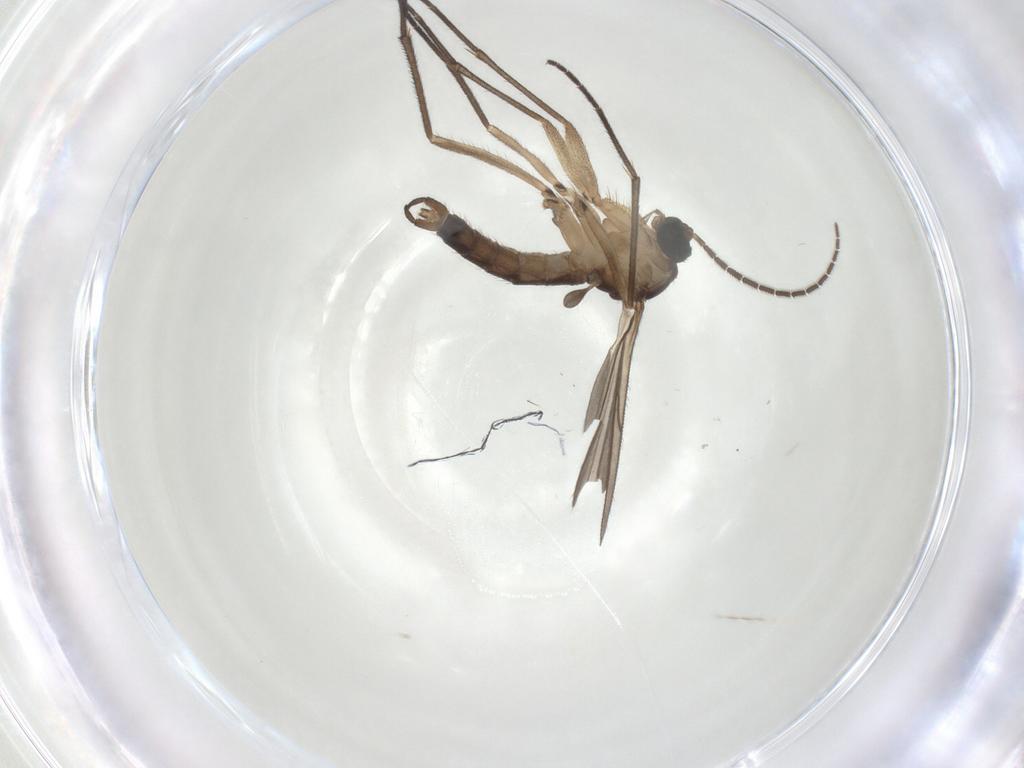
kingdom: Animalia
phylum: Arthropoda
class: Insecta
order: Diptera
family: Sciaridae
